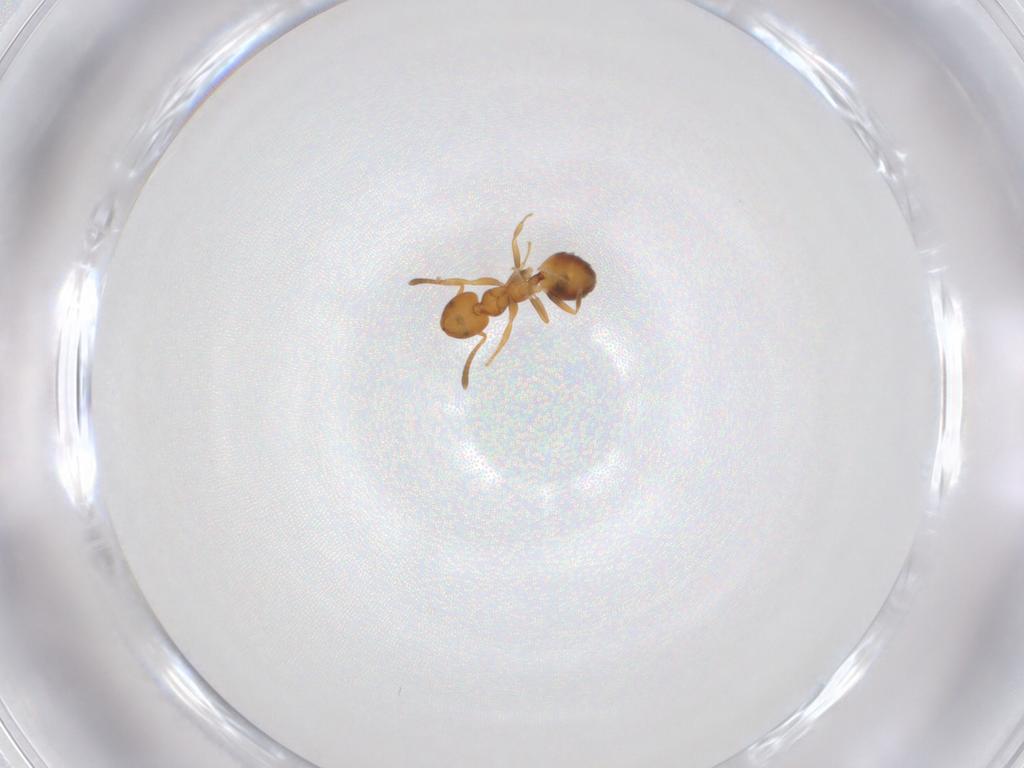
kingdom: Animalia
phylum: Arthropoda
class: Insecta
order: Hymenoptera
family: Formicidae
